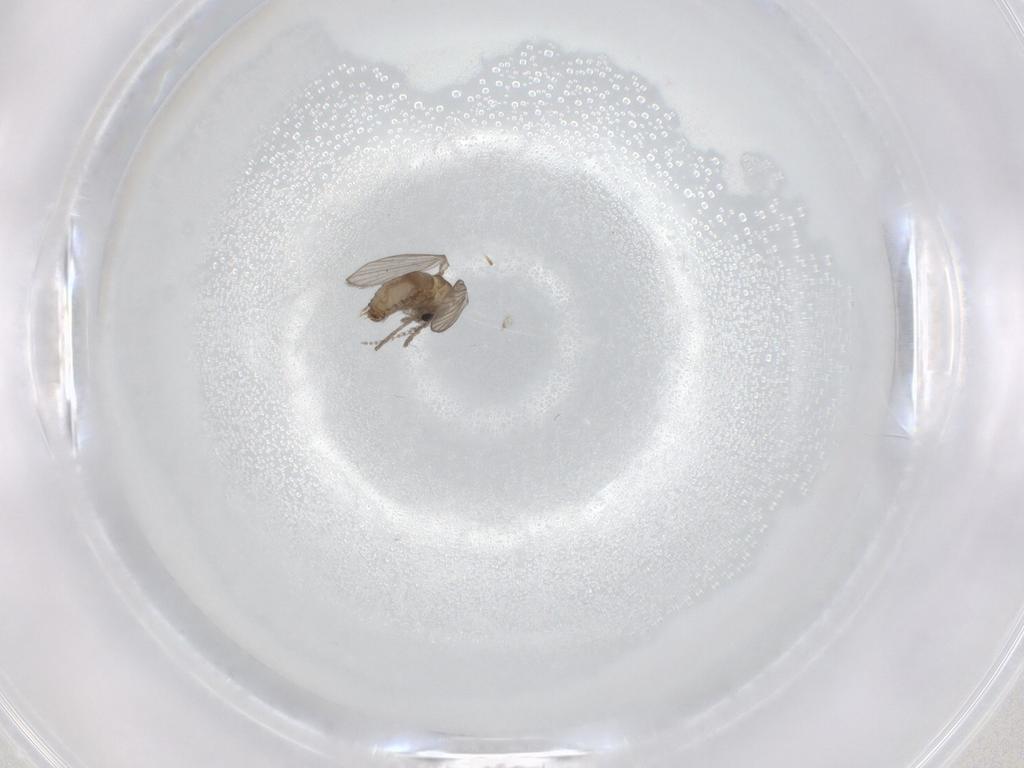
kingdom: Animalia
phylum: Arthropoda
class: Insecta
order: Diptera
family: Psychodidae
